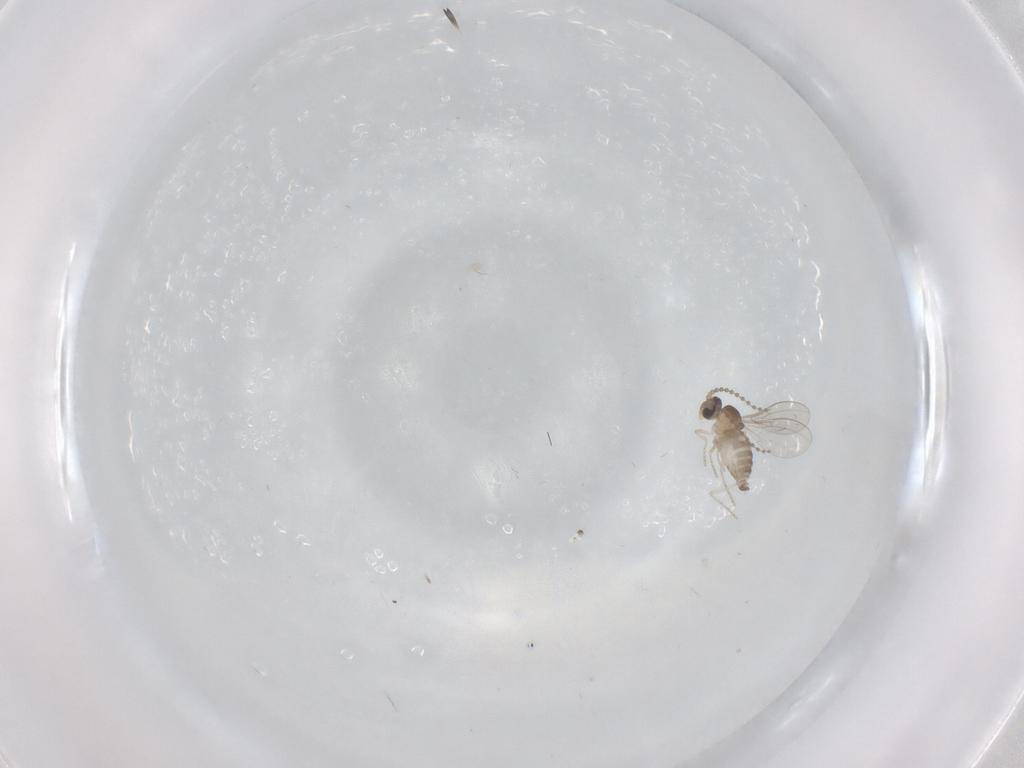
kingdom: Animalia
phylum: Arthropoda
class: Insecta
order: Diptera
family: Cecidomyiidae
